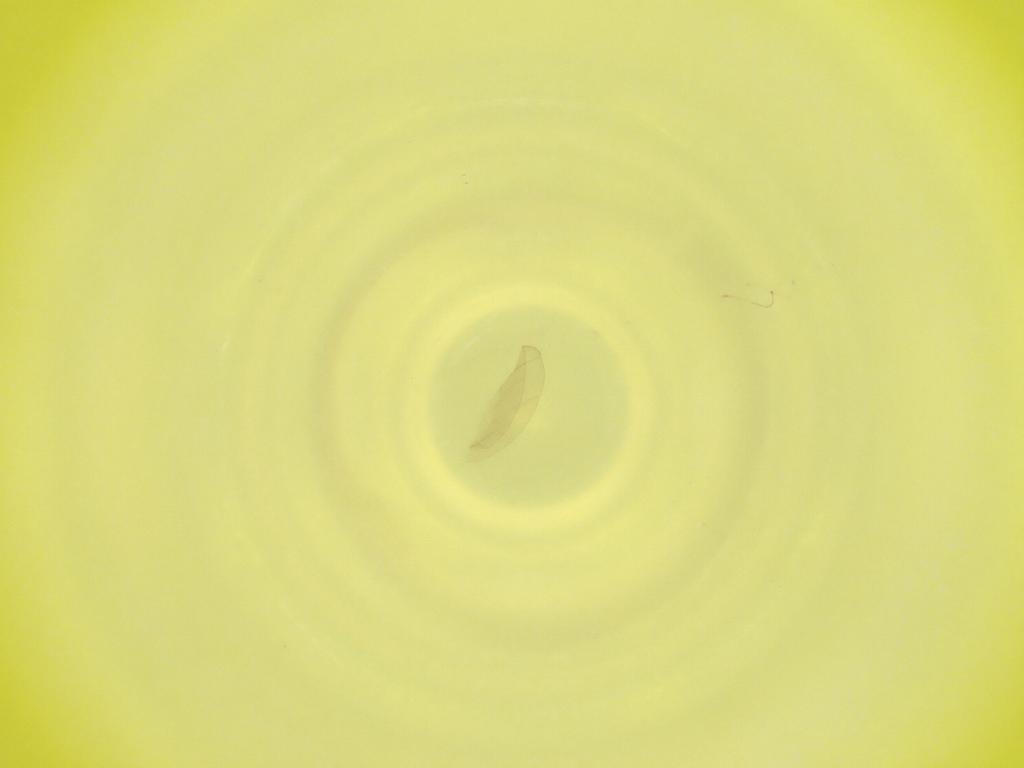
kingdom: Animalia
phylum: Arthropoda
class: Insecta
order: Diptera
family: Cecidomyiidae
